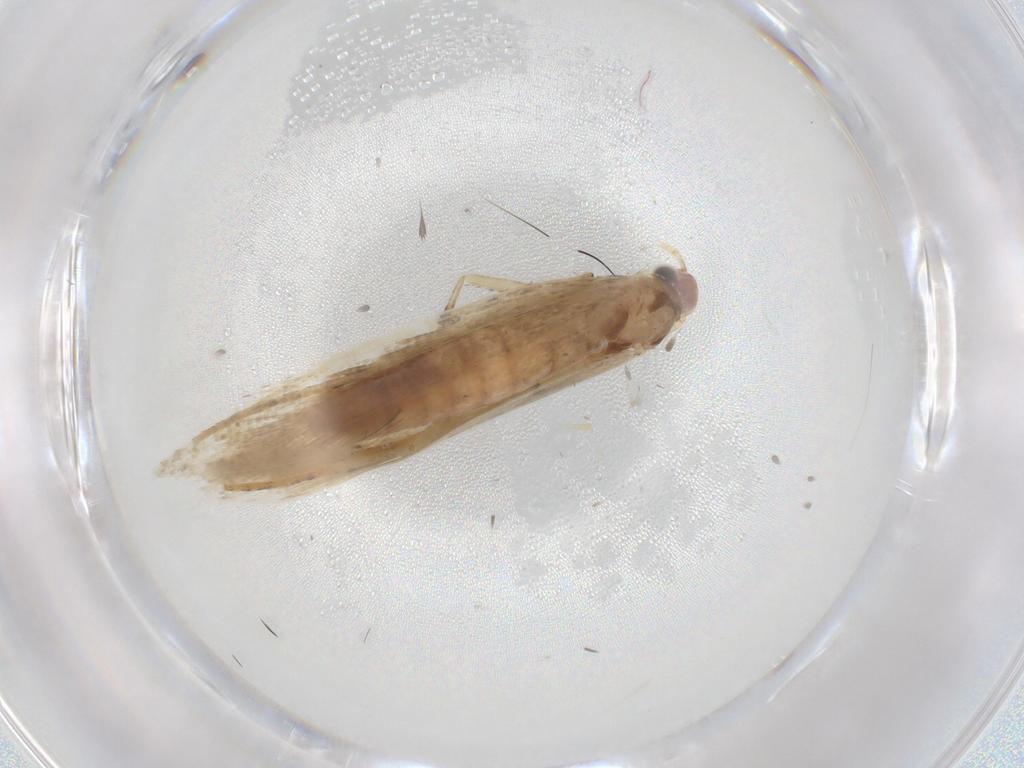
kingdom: Animalia
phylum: Arthropoda
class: Insecta
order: Lepidoptera
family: Crambidae
